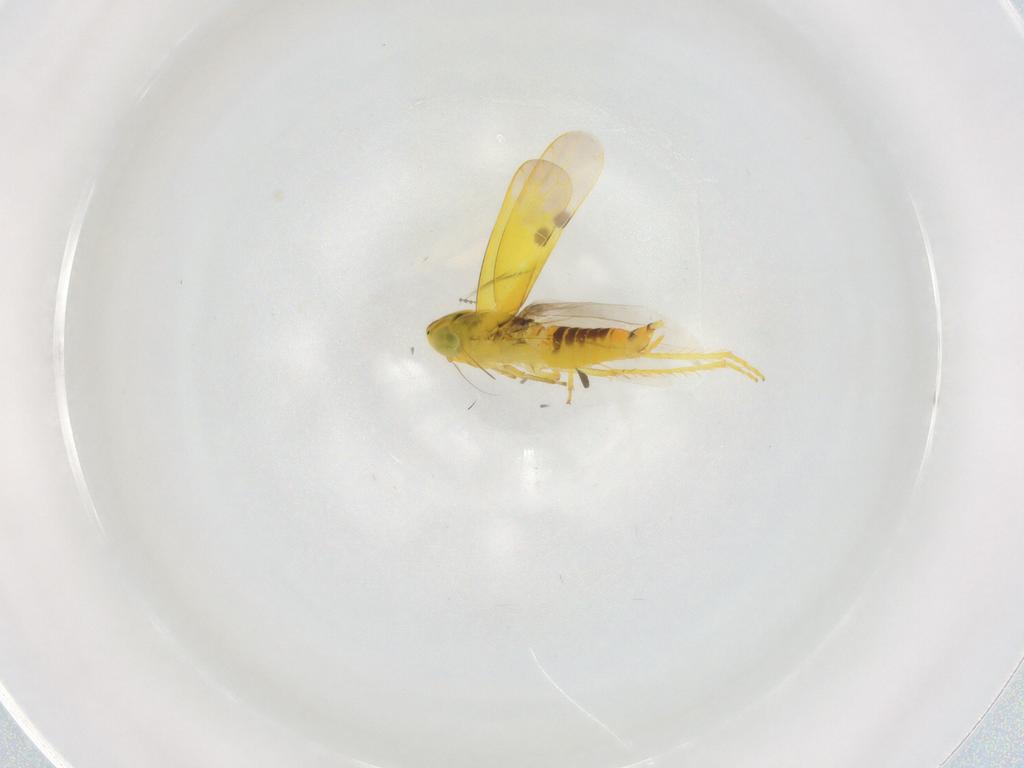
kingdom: Animalia
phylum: Arthropoda
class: Insecta
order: Hemiptera
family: Cicadellidae
